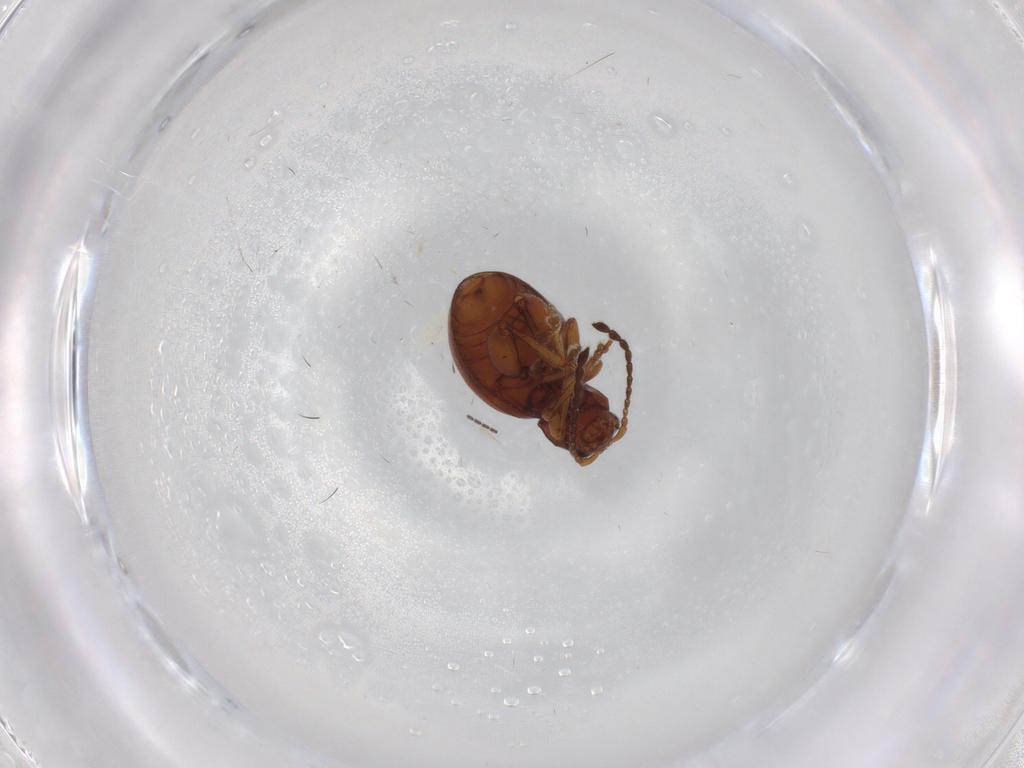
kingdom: Animalia
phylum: Arthropoda
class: Insecta
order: Coleoptera
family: Chrysomelidae
